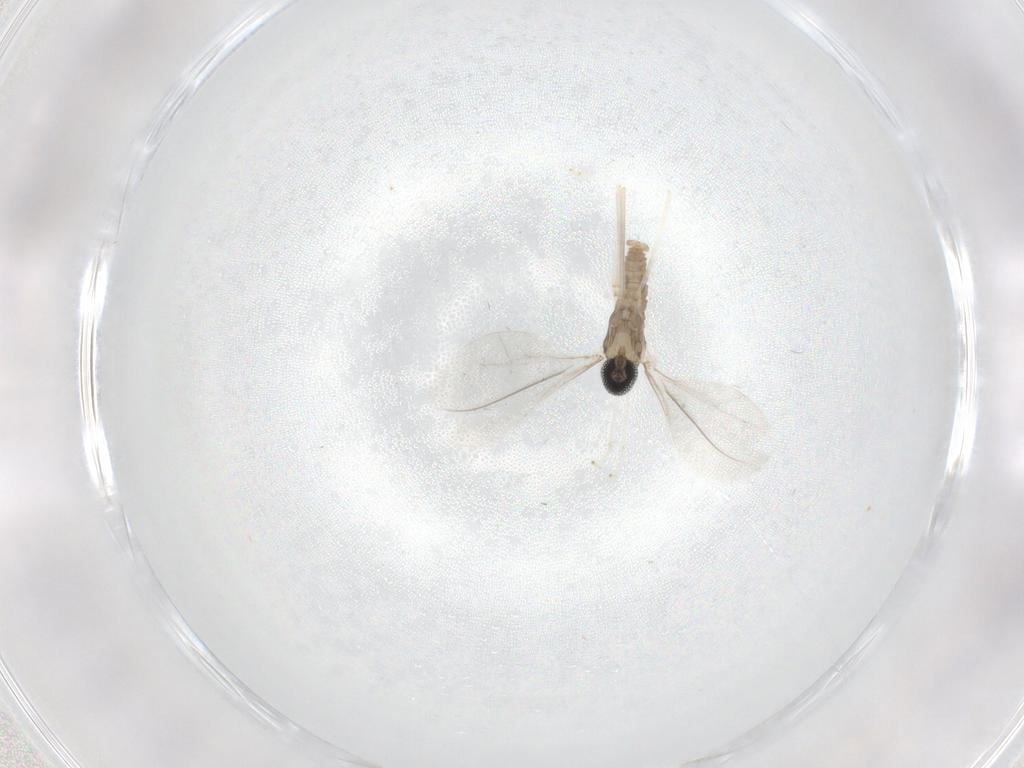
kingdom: Animalia
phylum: Arthropoda
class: Insecta
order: Diptera
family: Cecidomyiidae
